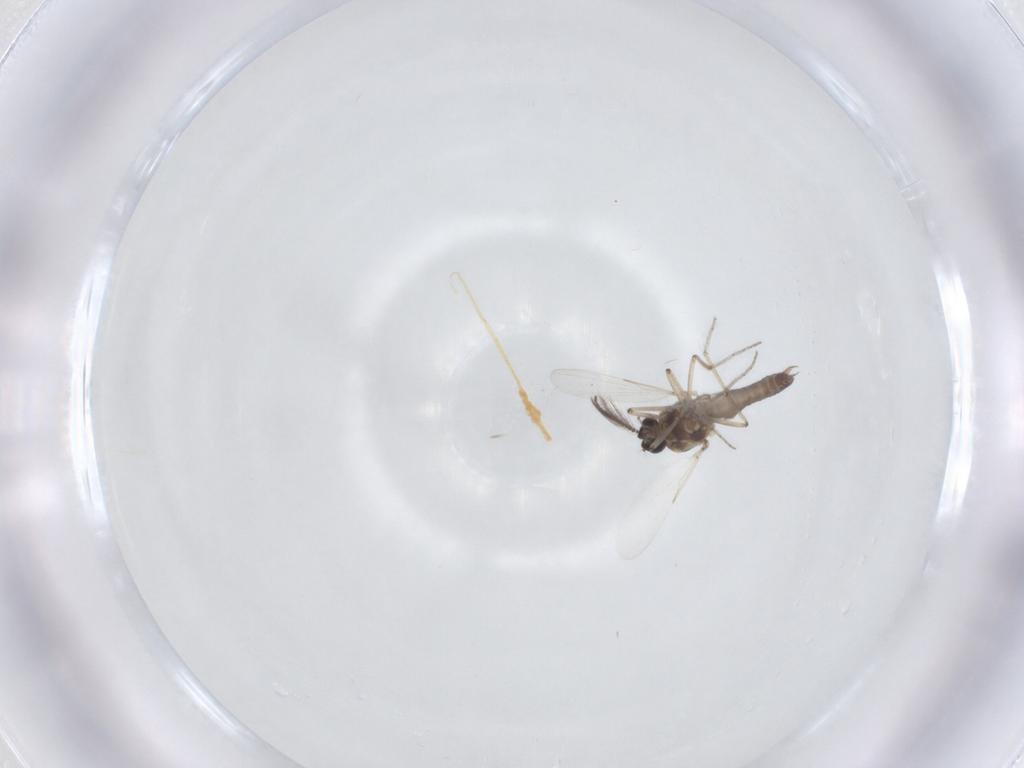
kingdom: Animalia
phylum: Arthropoda
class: Insecta
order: Diptera
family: Ceratopogonidae
